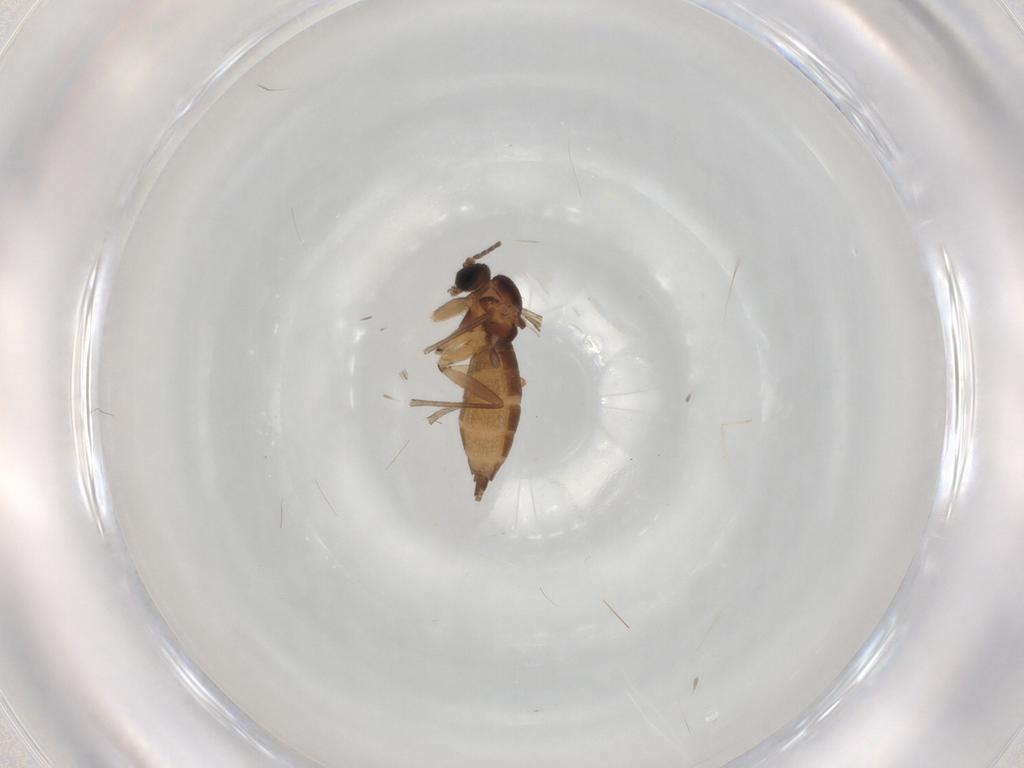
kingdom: Animalia
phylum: Arthropoda
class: Insecta
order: Diptera
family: Sciaridae
